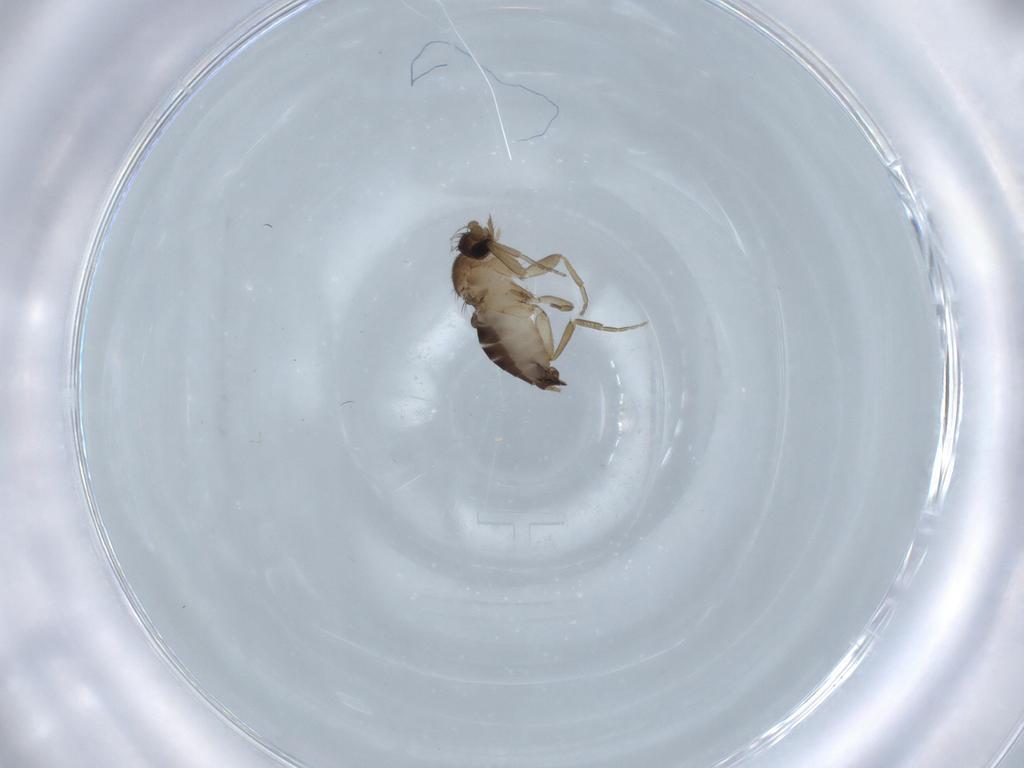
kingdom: Animalia
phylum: Arthropoda
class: Insecta
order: Diptera
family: Phoridae
